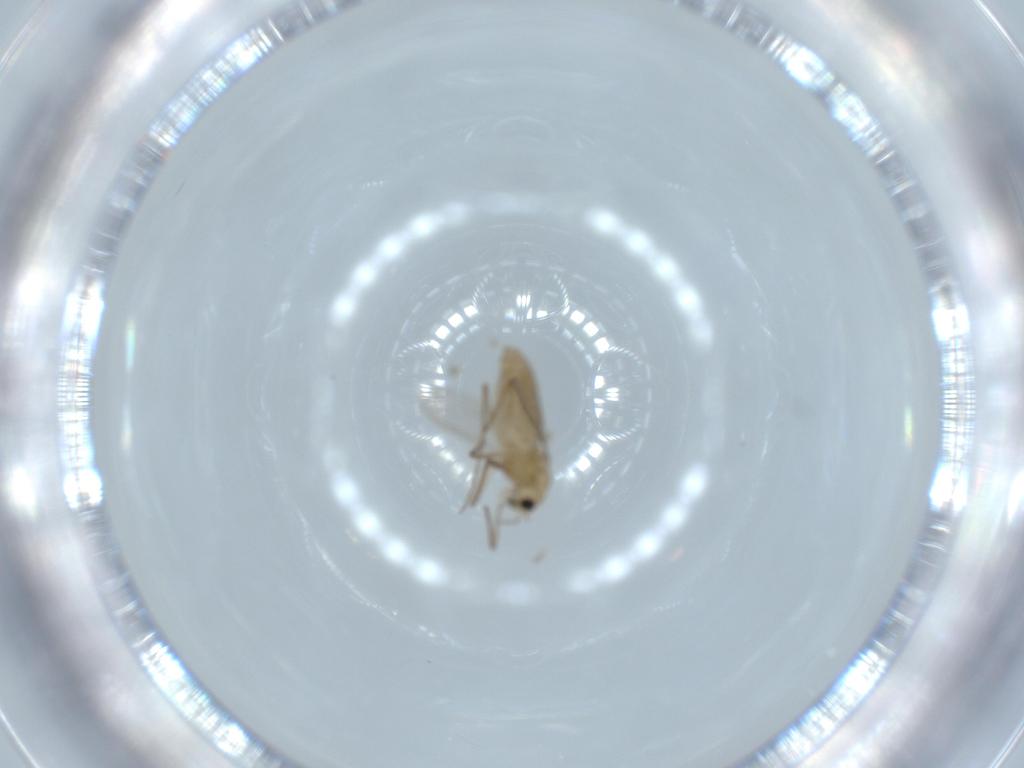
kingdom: Animalia
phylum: Arthropoda
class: Insecta
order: Diptera
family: Chironomidae
